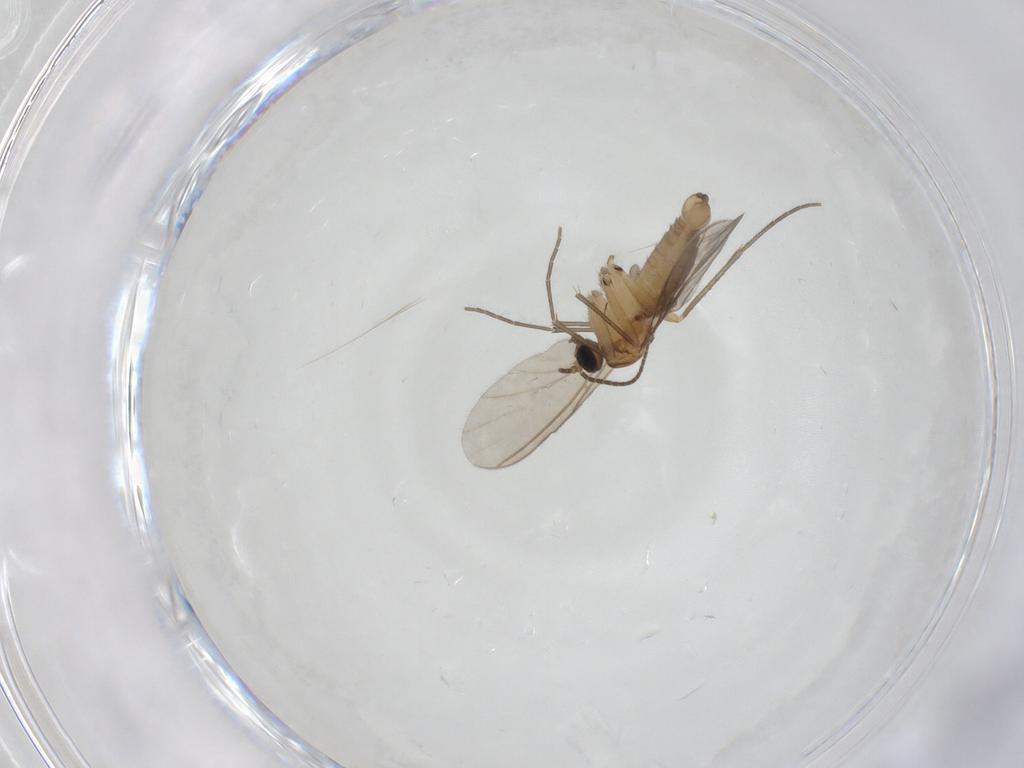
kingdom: Animalia
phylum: Arthropoda
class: Insecta
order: Diptera
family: Sciaridae
